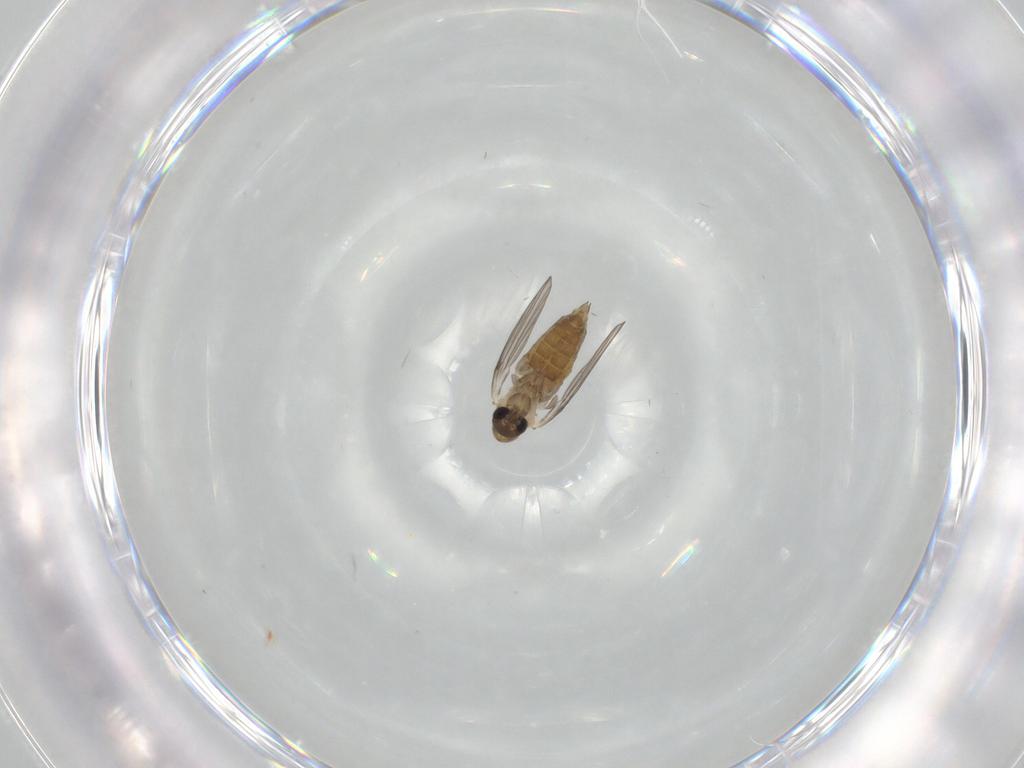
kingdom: Animalia
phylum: Arthropoda
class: Insecta
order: Diptera
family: Psychodidae
